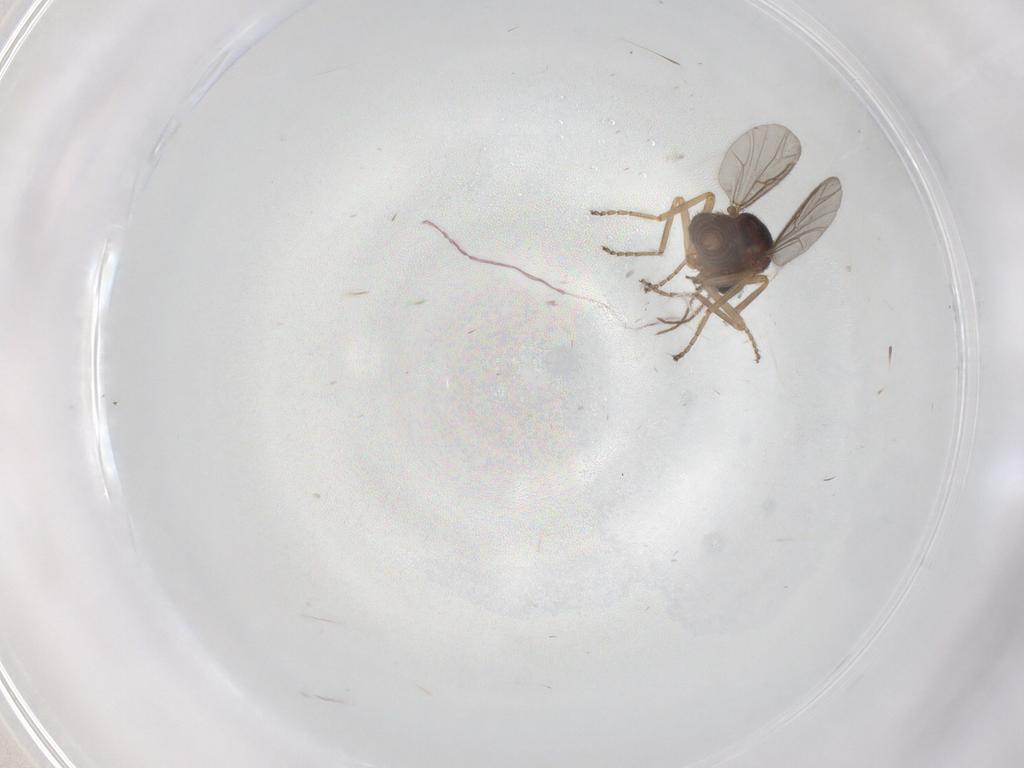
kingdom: Animalia
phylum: Arthropoda
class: Insecta
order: Diptera
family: Ceratopogonidae
